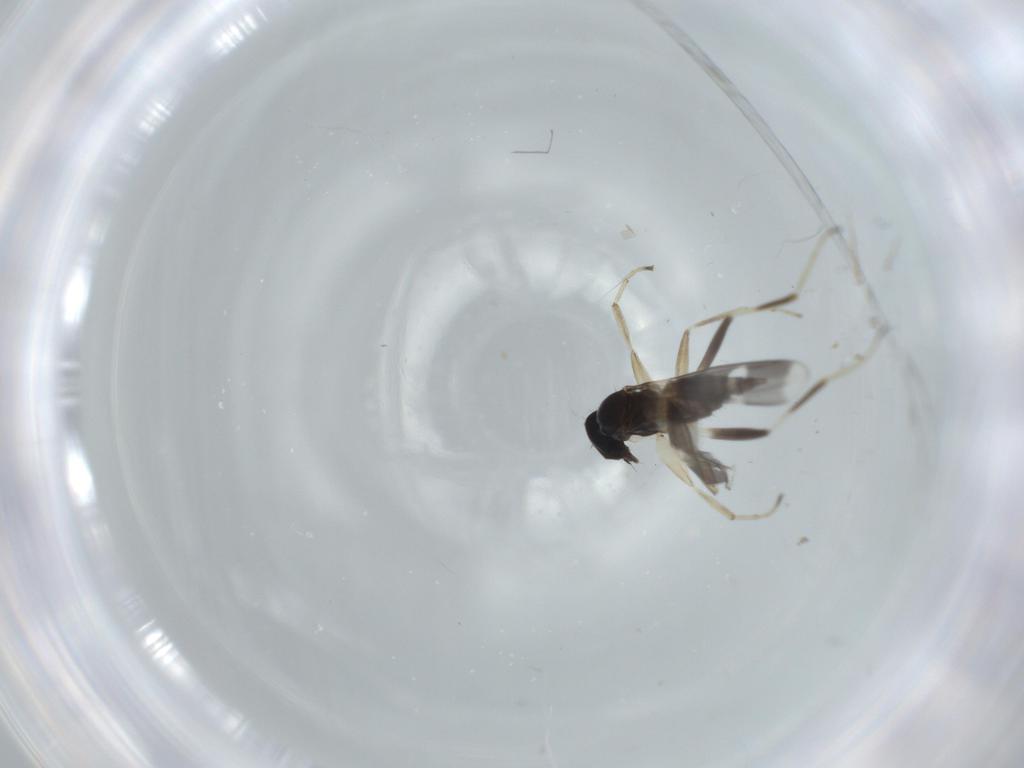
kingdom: Animalia
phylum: Arthropoda
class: Insecta
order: Diptera
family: Hybotidae
